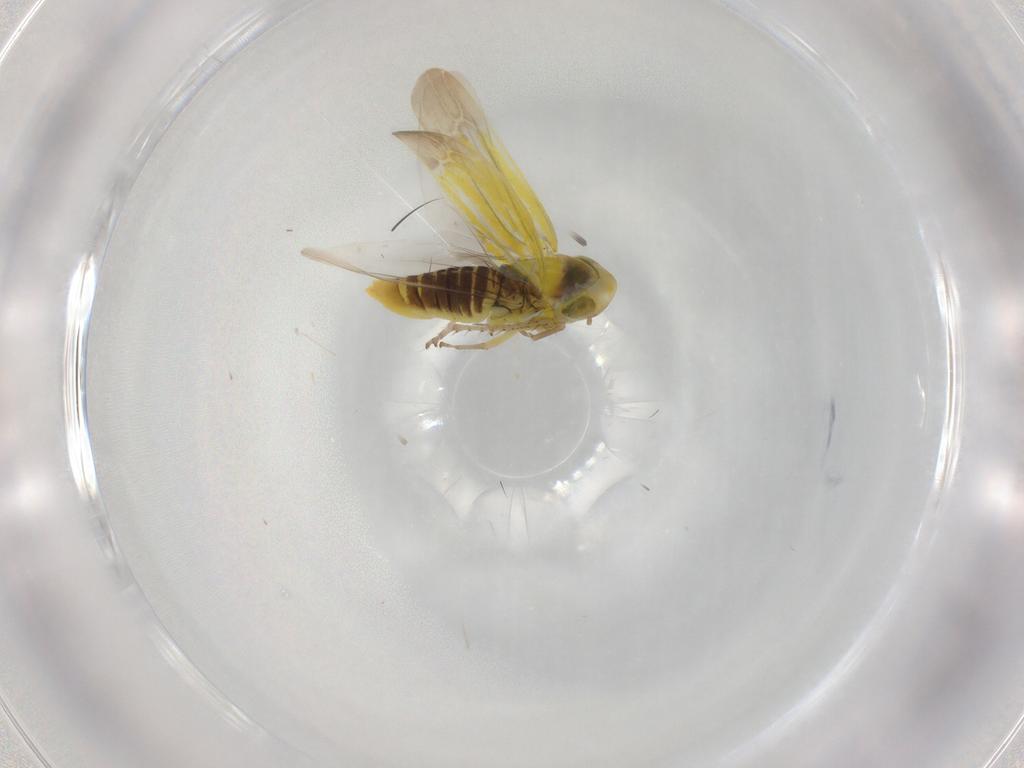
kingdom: Animalia
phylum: Arthropoda
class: Insecta
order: Hemiptera
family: Cicadellidae
